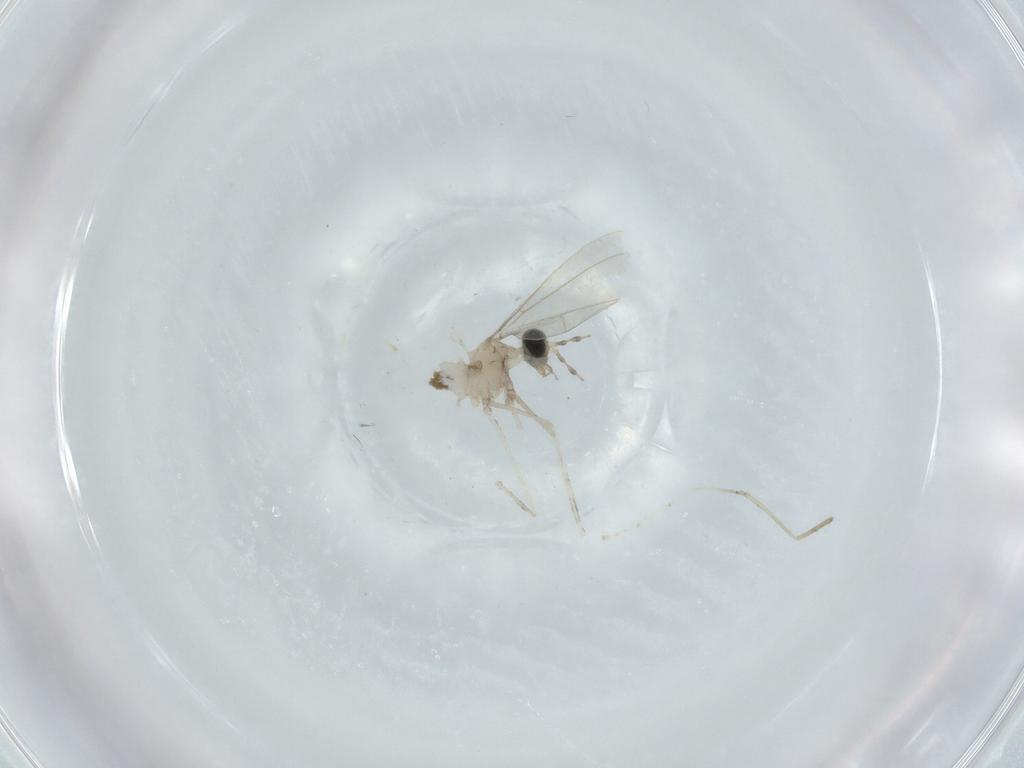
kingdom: Animalia
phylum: Arthropoda
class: Insecta
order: Diptera
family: Cecidomyiidae
